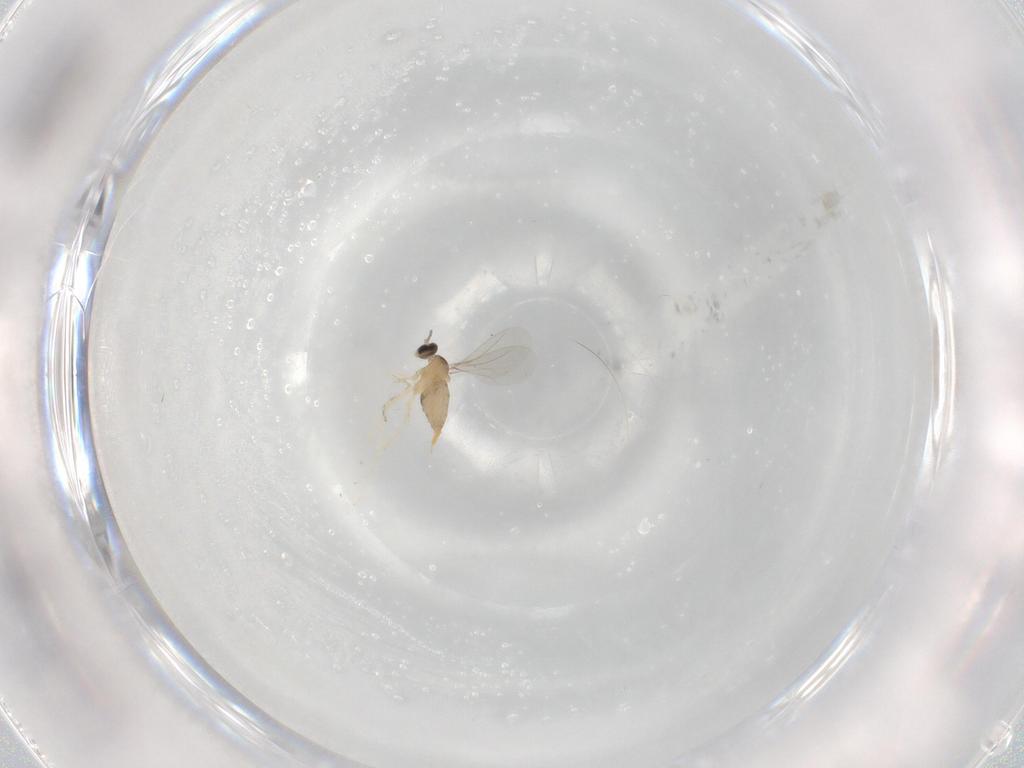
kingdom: Animalia
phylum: Arthropoda
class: Insecta
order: Diptera
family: Cecidomyiidae
